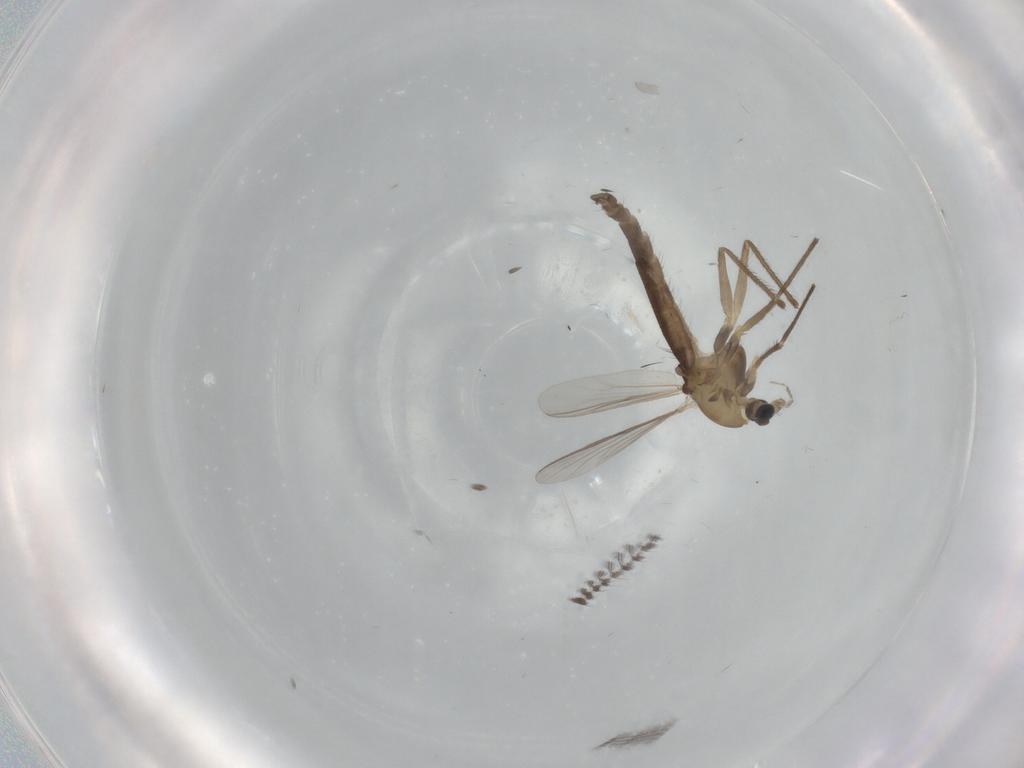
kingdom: Animalia
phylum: Arthropoda
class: Insecta
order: Diptera
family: Chironomidae
